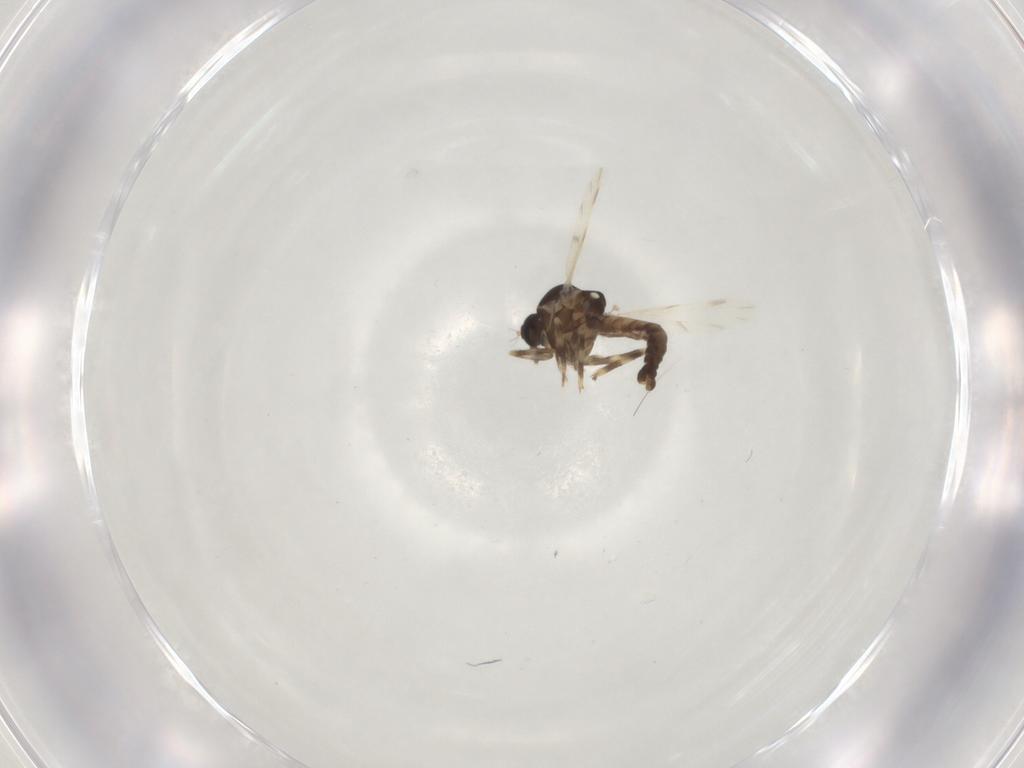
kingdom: Animalia
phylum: Arthropoda
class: Insecta
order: Diptera
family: Ceratopogonidae
